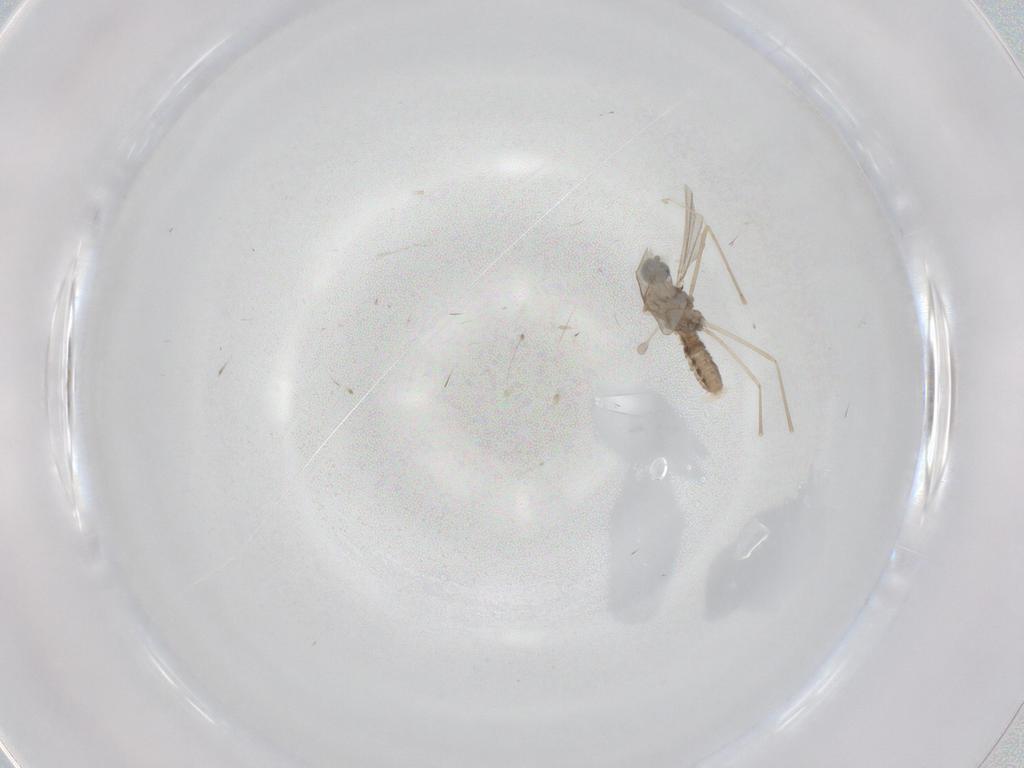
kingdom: Animalia
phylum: Arthropoda
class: Insecta
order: Diptera
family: Cecidomyiidae
